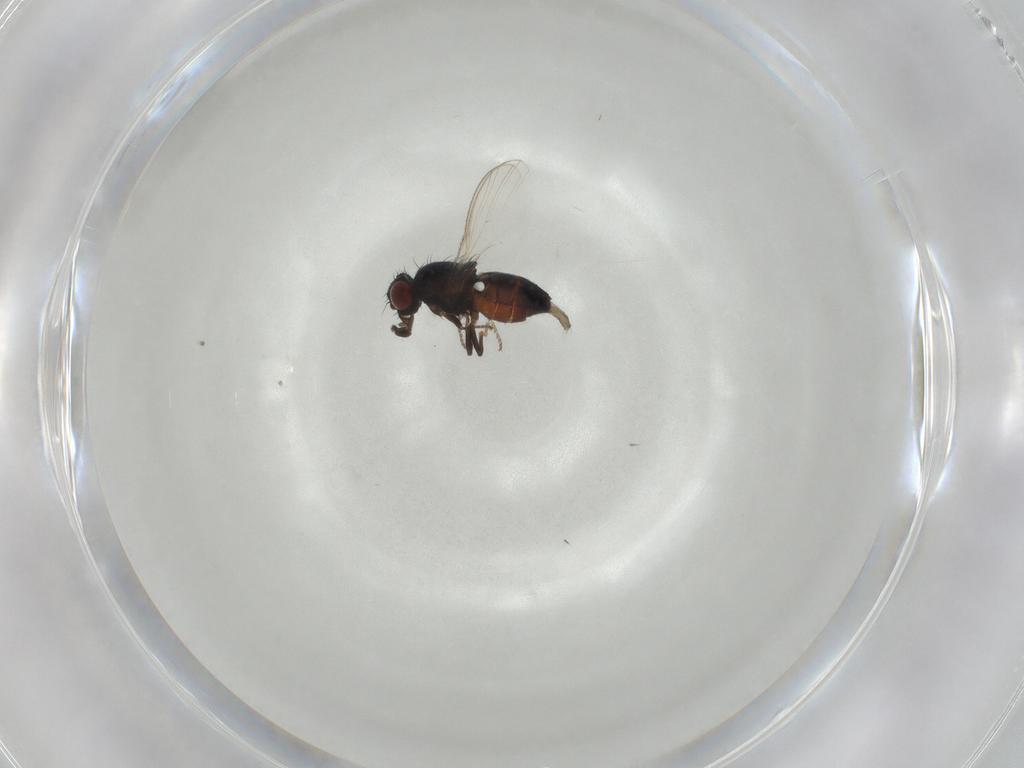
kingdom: Animalia
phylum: Arthropoda
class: Insecta
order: Diptera
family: Carnidae
